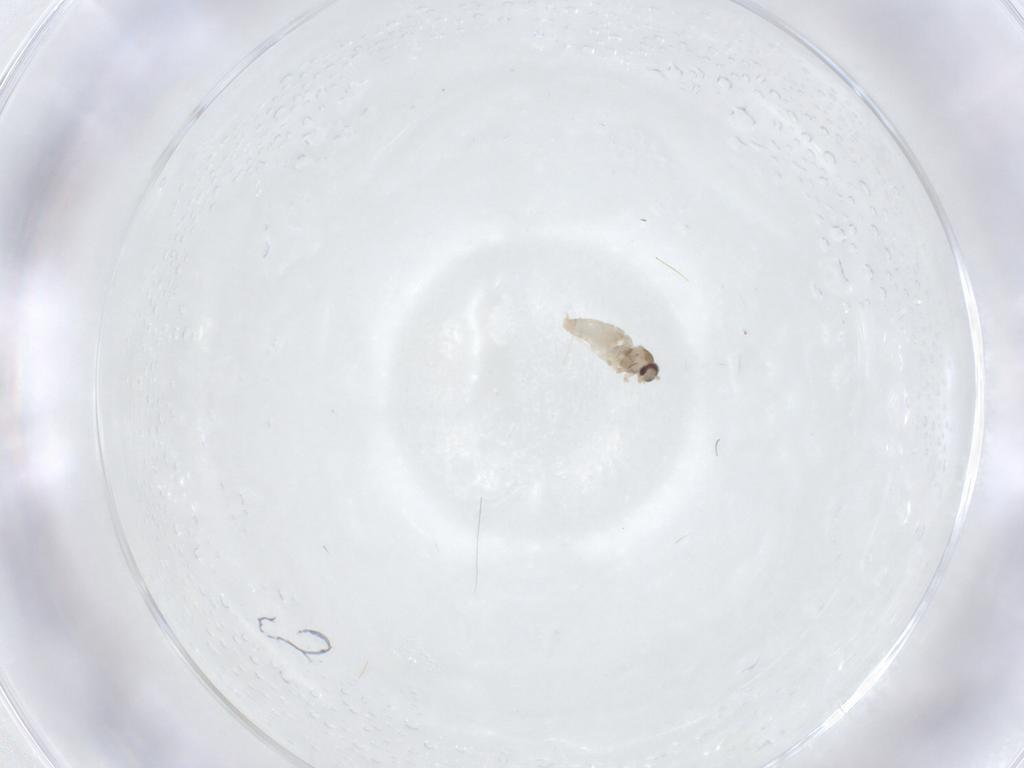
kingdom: Animalia
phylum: Arthropoda
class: Insecta
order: Diptera
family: Cecidomyiidae
